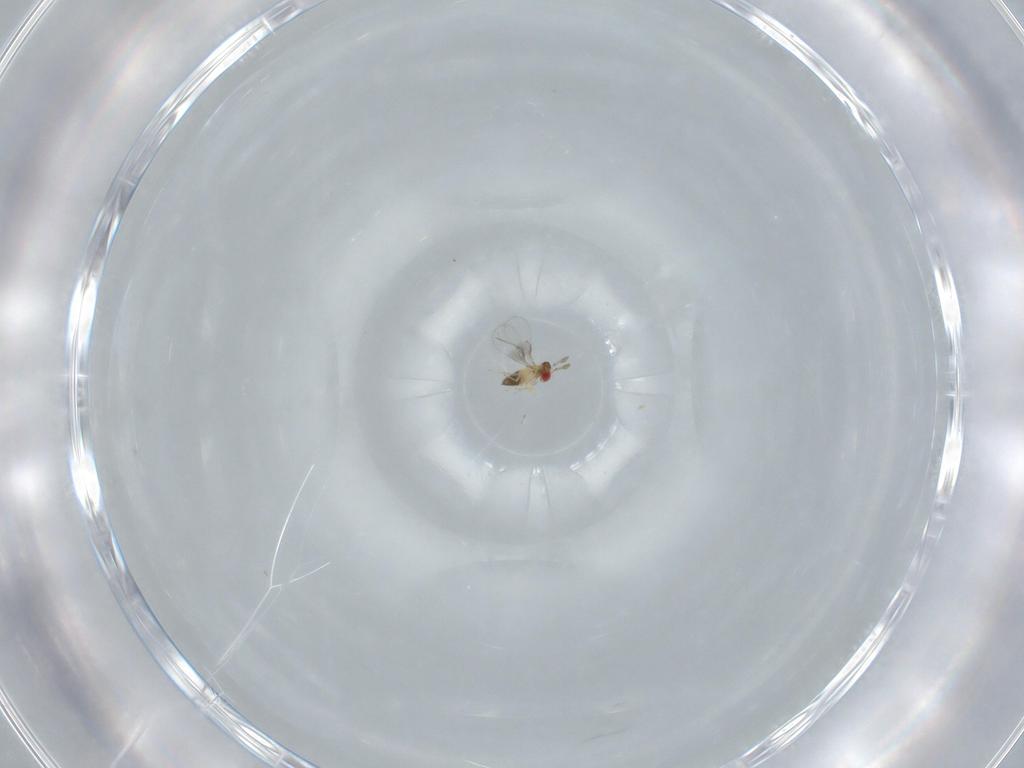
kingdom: Animalia
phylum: Arthropoda
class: Insecta
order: Hymenoptera
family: Trichogrammatidae
